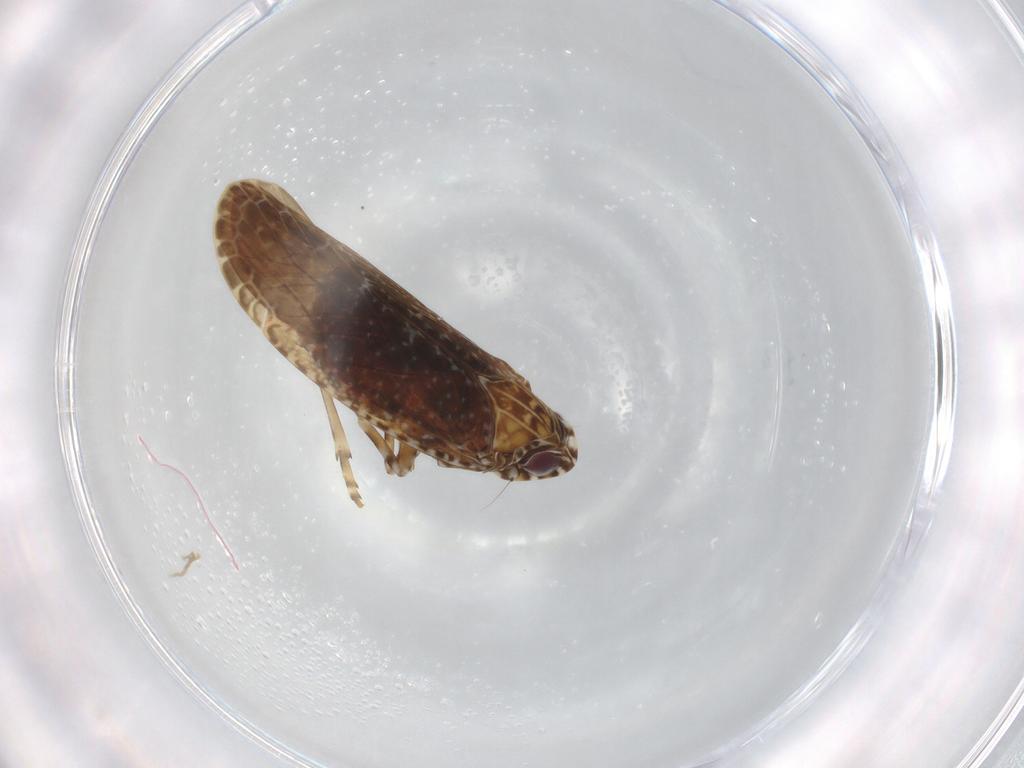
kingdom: Animalia
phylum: Arthropoda
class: Insecta
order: Hemiptera
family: Achilidae
